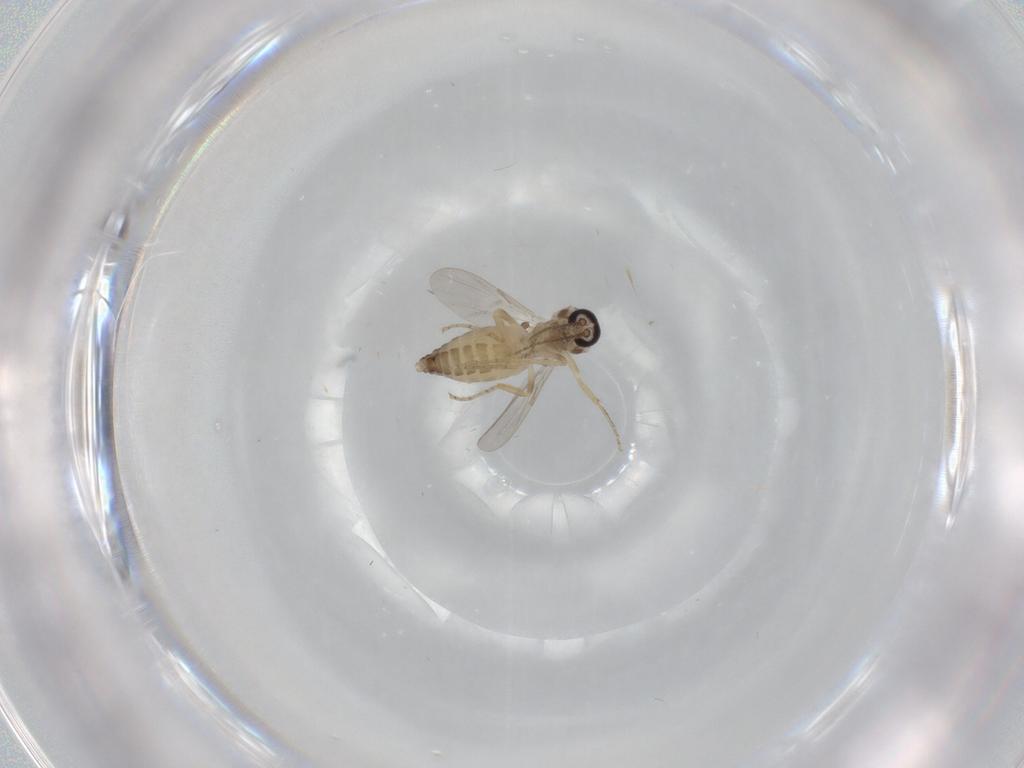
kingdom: Animalia
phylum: Arthropoda
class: Insecta
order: Diptera
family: Ceratopogonidae
